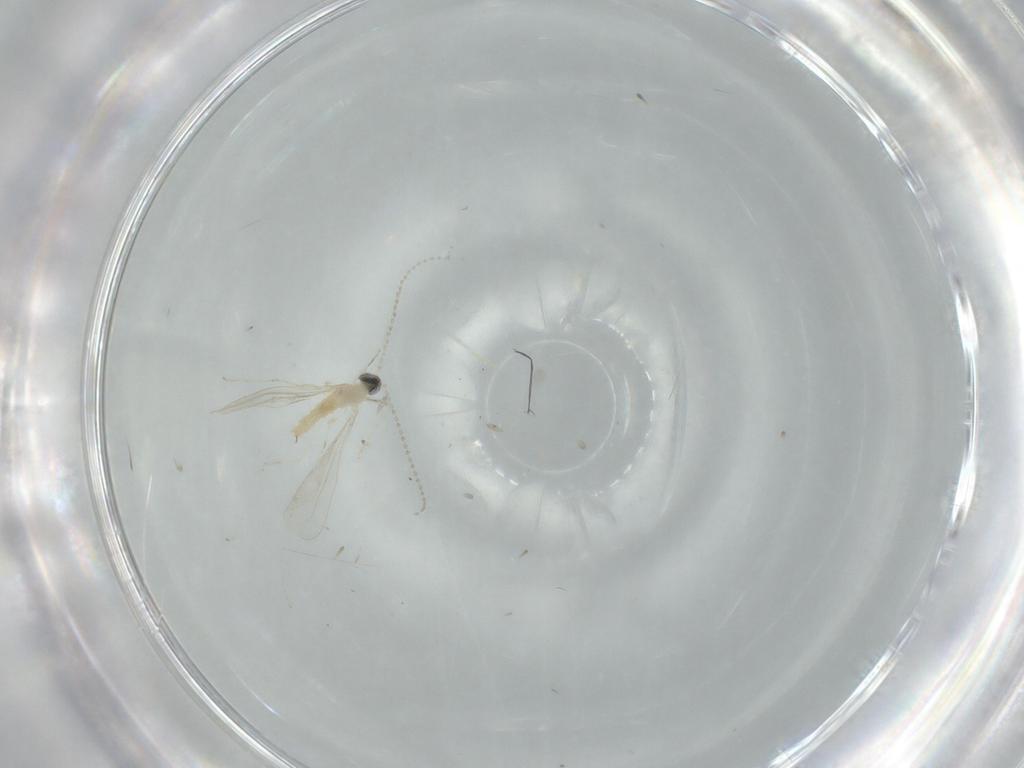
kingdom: Animalia
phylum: Arthropoda
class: Insecta
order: Diptera
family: Cecidomyiidae
